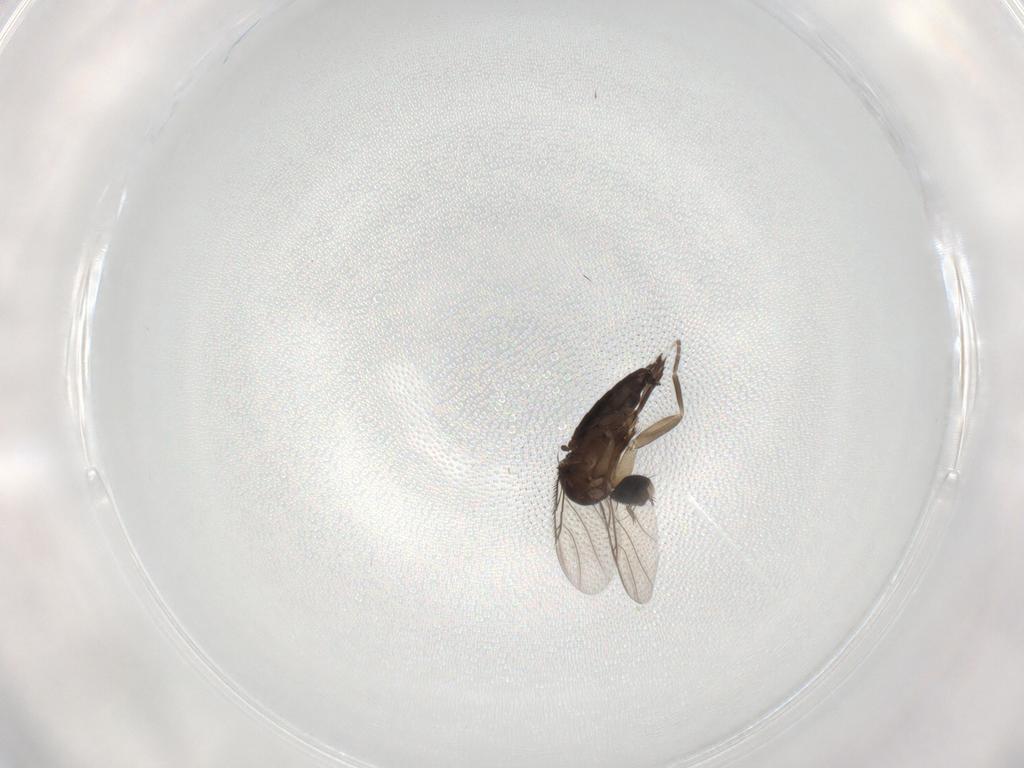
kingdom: Animalia
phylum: Arthropoda
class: Insecta
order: Diptera
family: Phoridae
